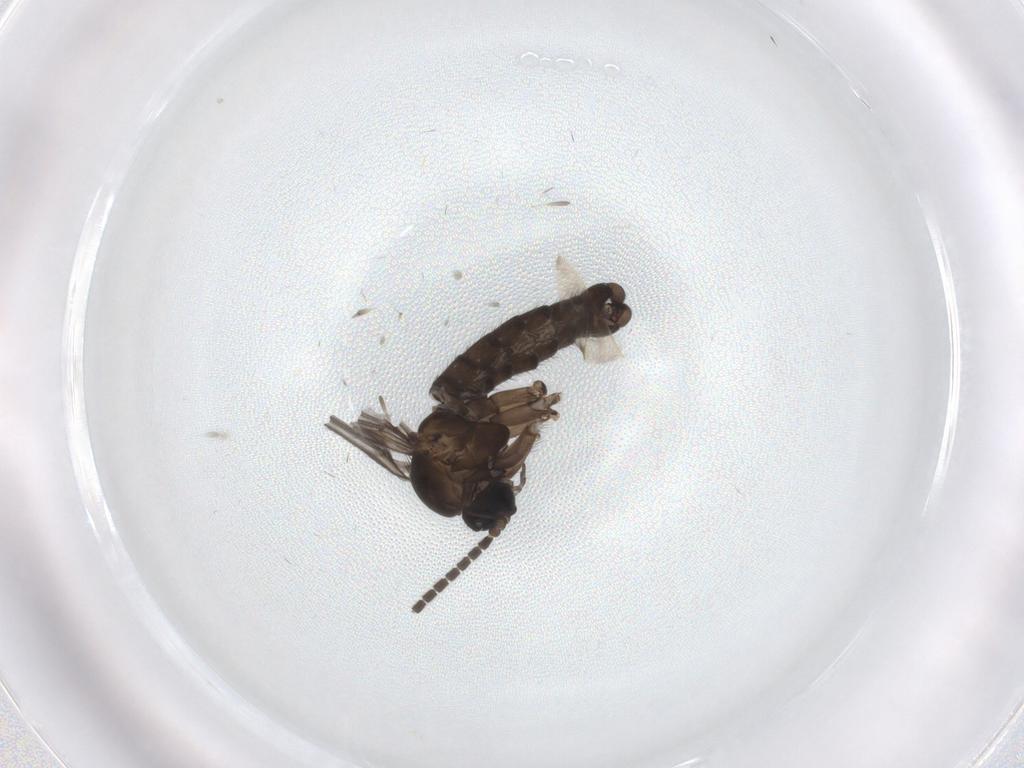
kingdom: Animalia
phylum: Arthropoda
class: Insecta
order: Diptera
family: Sciaridae
